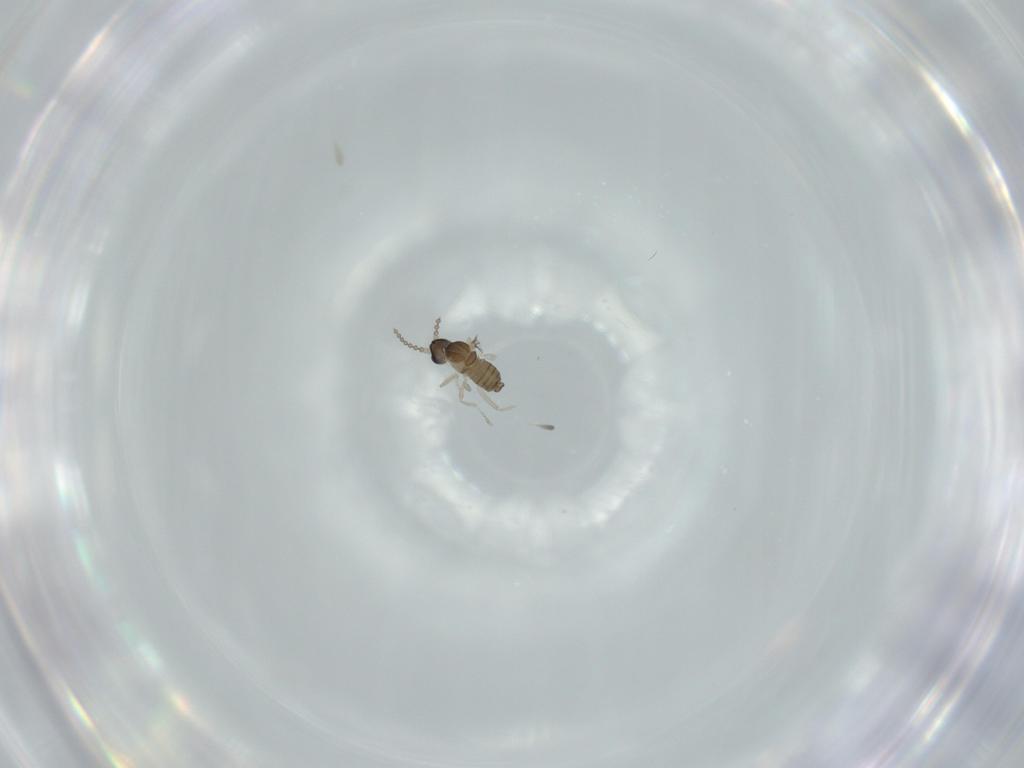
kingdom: Animalia
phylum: Arthropoda
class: Insecta
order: Diptera
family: Cecidomyiidae
